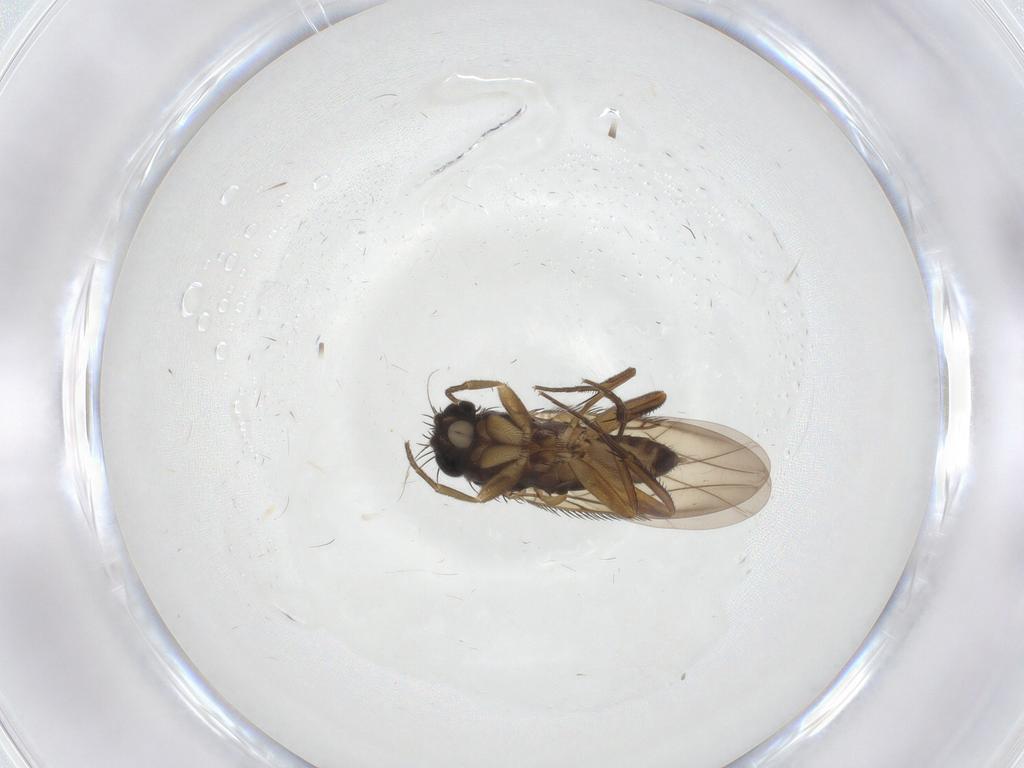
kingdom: Animalia
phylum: Arthropoda
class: Insecta
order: Diptera
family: Phoridae
